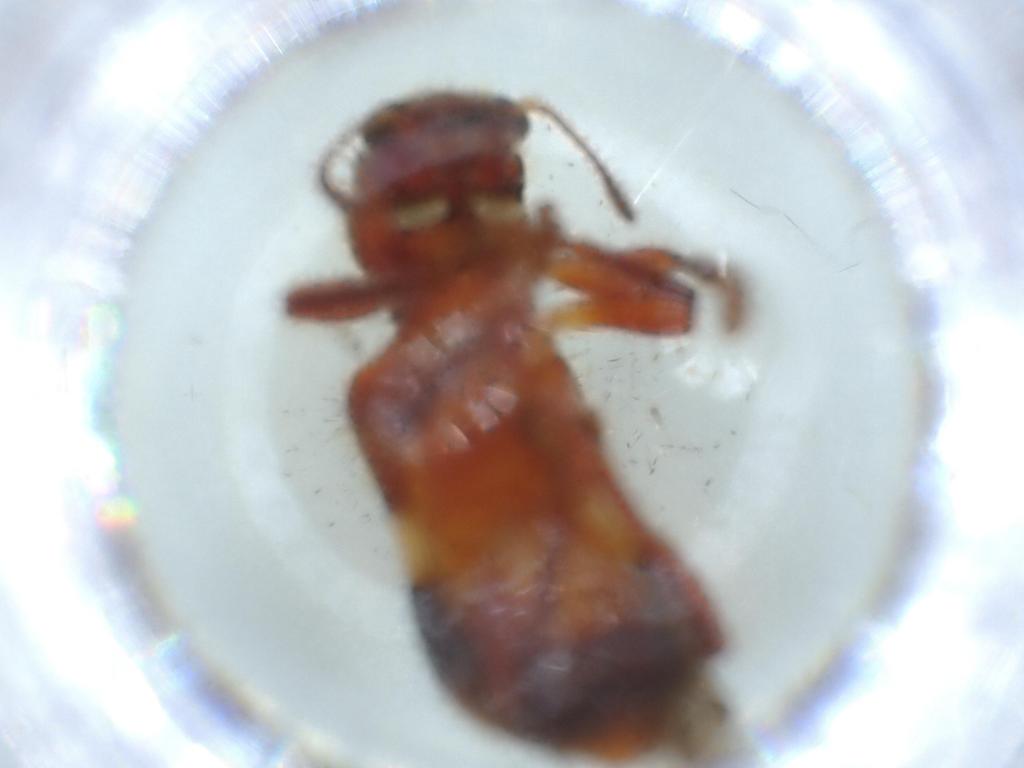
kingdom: Animalia
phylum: Arthropoda
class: Insecta
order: Coleoptera
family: Bostrichidae
